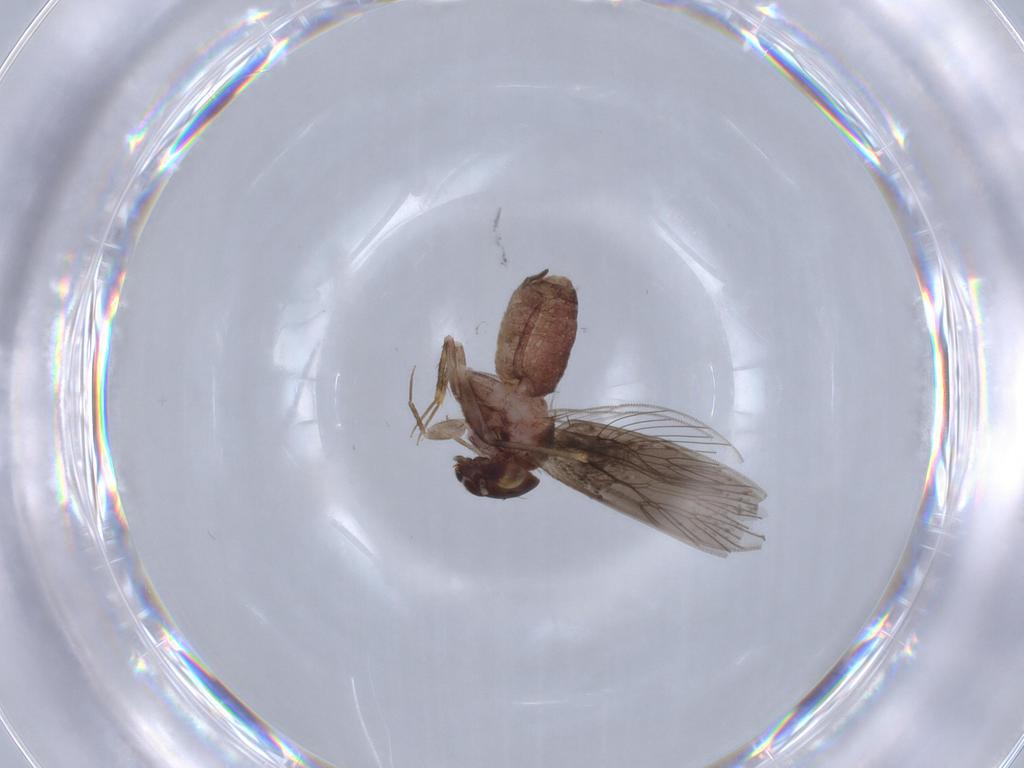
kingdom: Animalia
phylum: Arthropoda
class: Insecta
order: Psocodea
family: Lepidopsocidae
